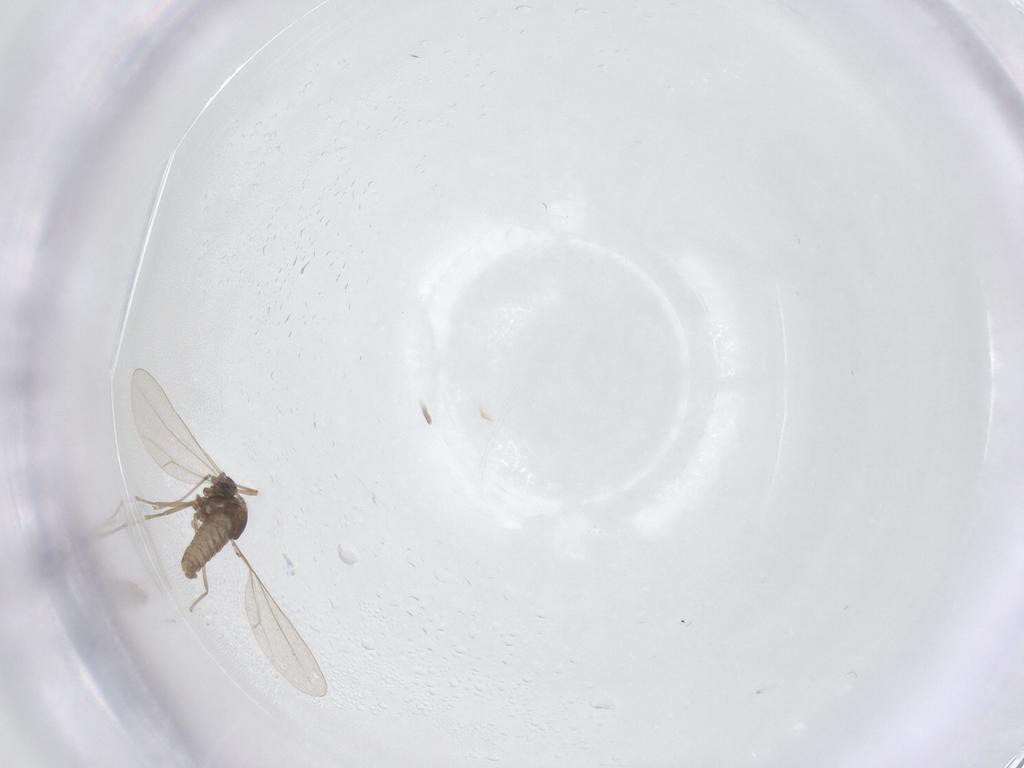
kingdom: Animalia
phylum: Arthropoda
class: Insecta
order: Diptera
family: Cecidomyiidae
